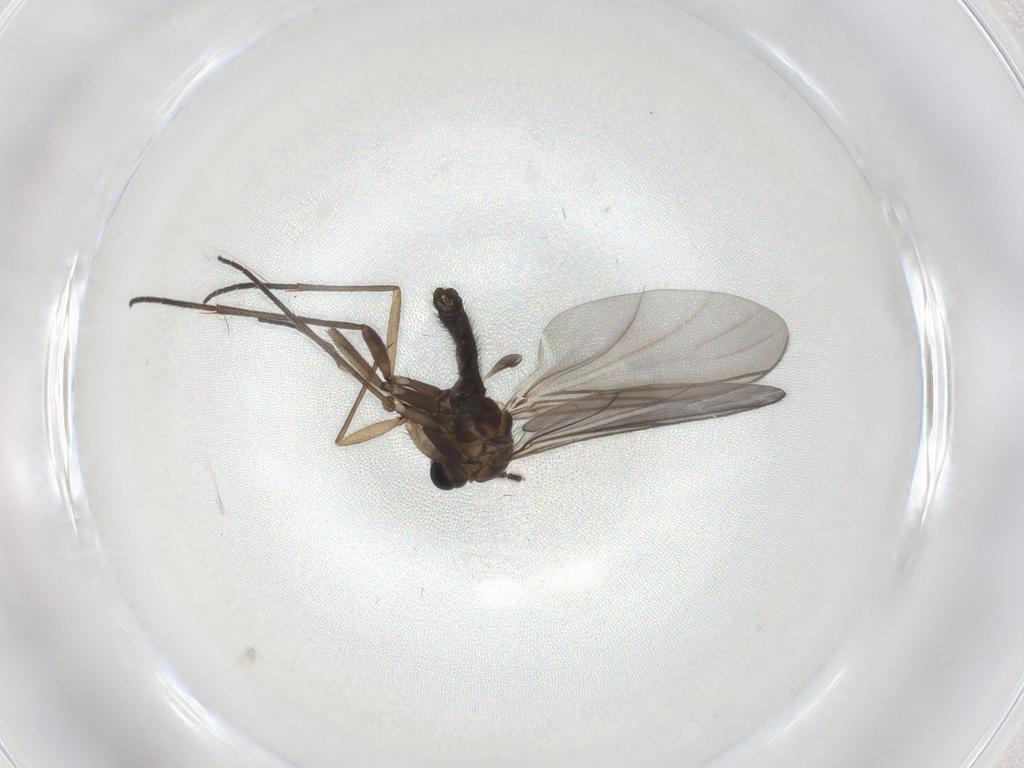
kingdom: Animalia
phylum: Arthropoda
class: Insecta
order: Diptera
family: Sciaridae
